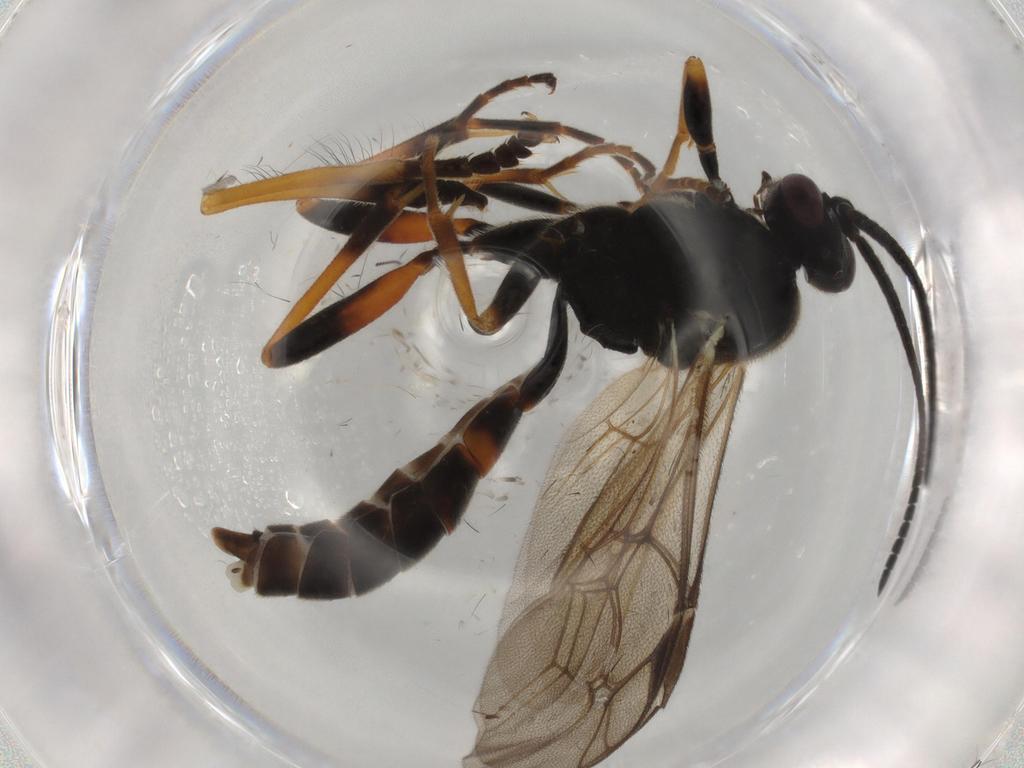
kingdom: Animalia
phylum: Arthropoda
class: Insecta
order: Hymenoptera
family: Ichneumonidae
